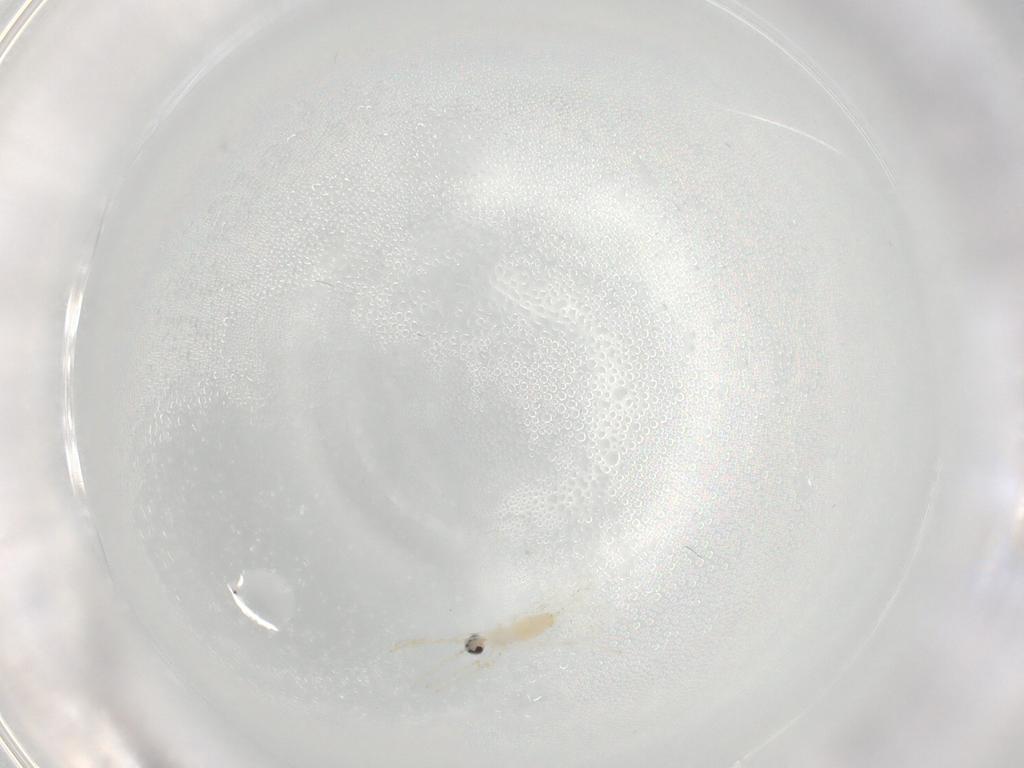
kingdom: Animalia
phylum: Arthropoda
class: Insecta
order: Diptera
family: Cecidomyiidae
